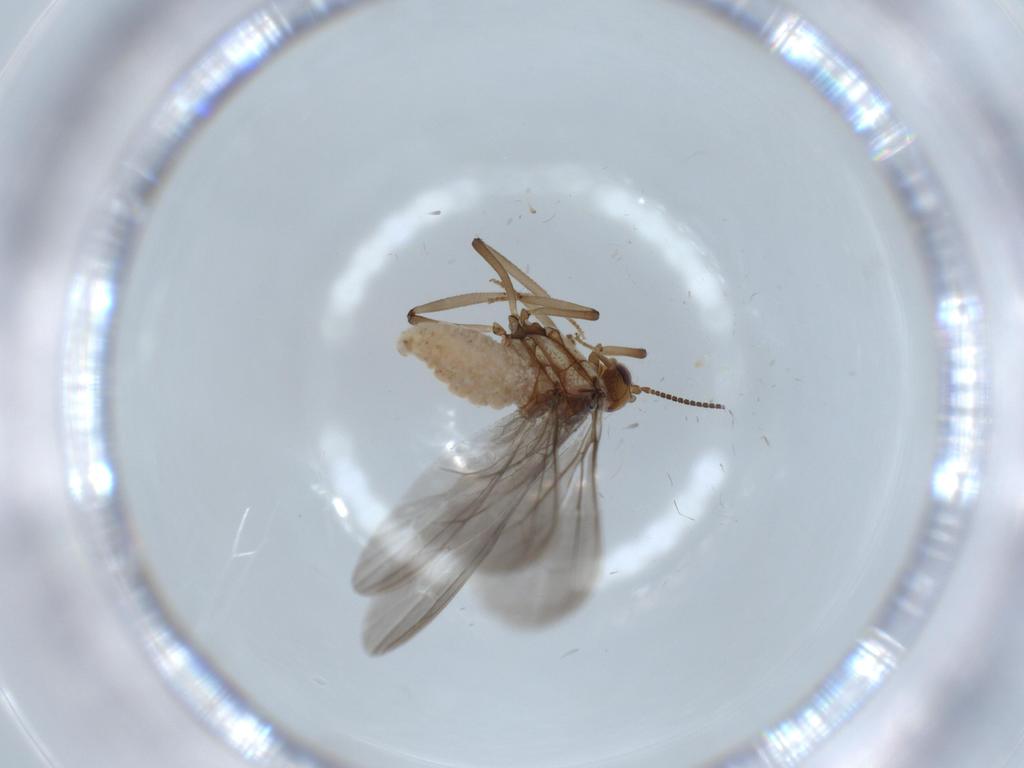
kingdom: Animalia
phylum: Arthropoda
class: Insecta
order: Neuroptera
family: Coniopterygidae
